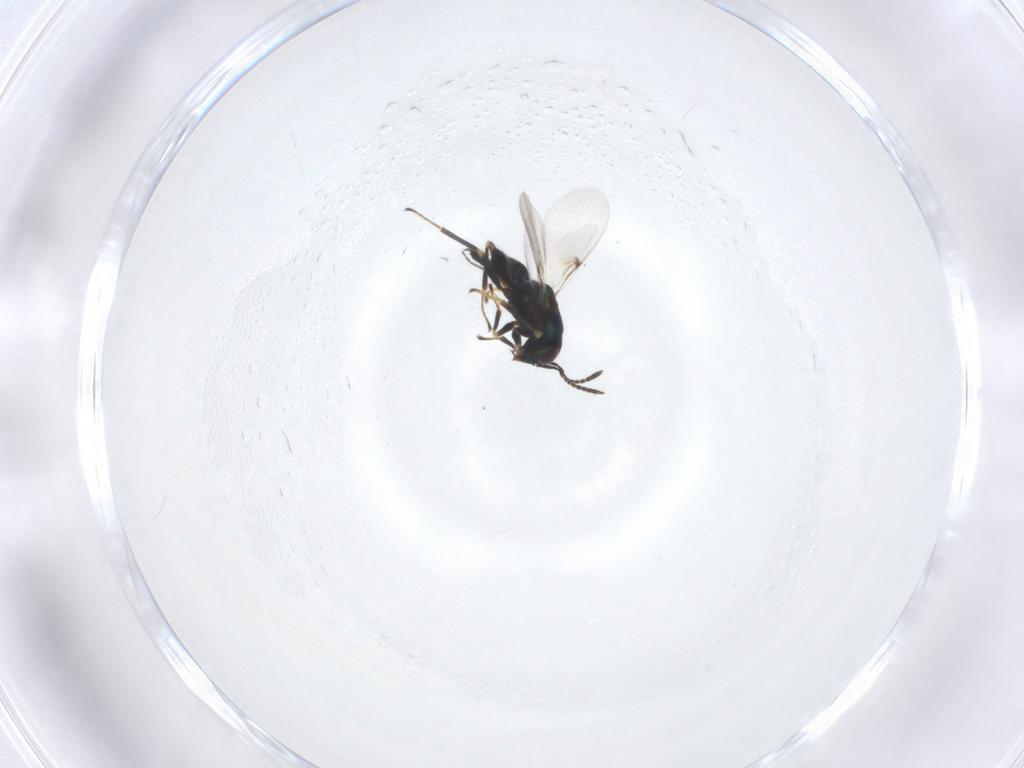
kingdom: Animalia
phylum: Arthropoda
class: Insecta
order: Hymenoptera
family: Encyrtidae
